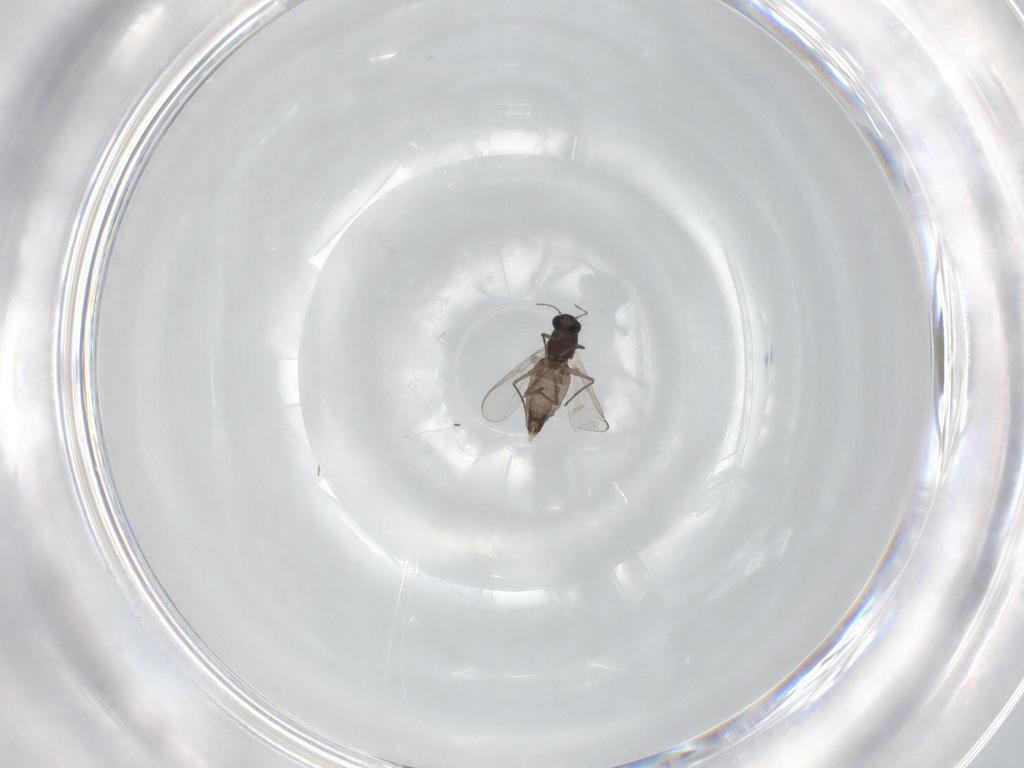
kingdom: Animalia
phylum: Arthropoda
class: Insecta
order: Diptera
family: Chironomidae
